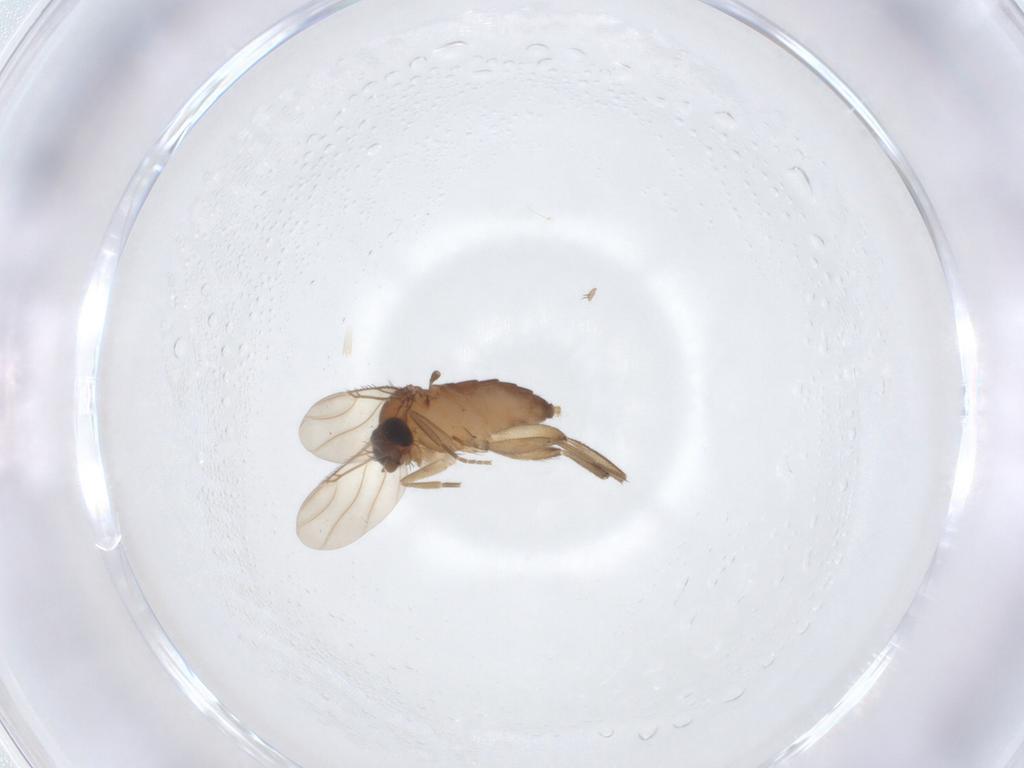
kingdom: Animalia
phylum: Arthropoda
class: Insecta
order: Diptera
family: Phoridae
